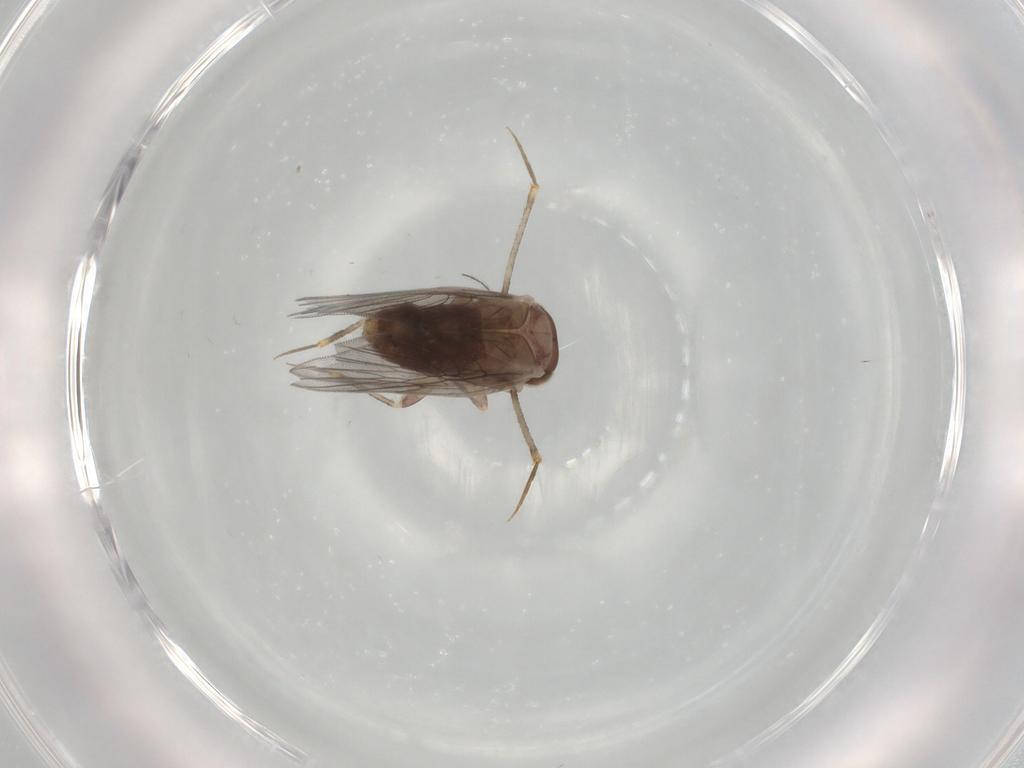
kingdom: Animalia
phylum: Arthropoda
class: Insecta
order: Psocodea
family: Lepidopsocidae
